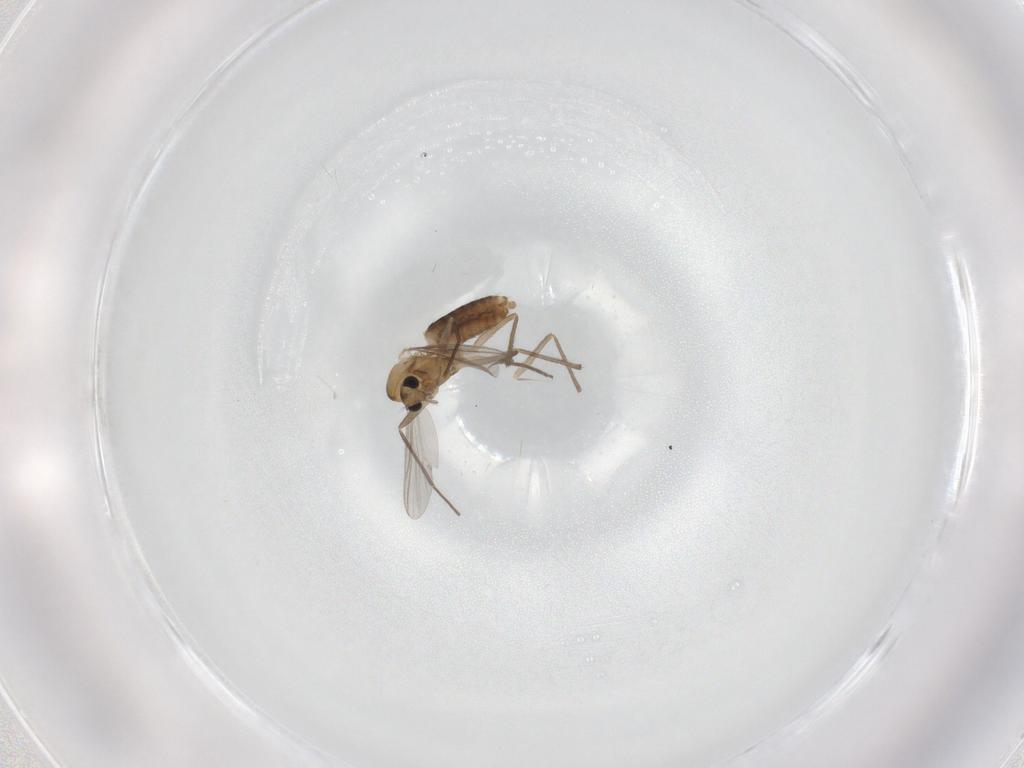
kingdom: Animalia
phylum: Arthropoda
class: Insecta
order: Diptera
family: Chironomidae
